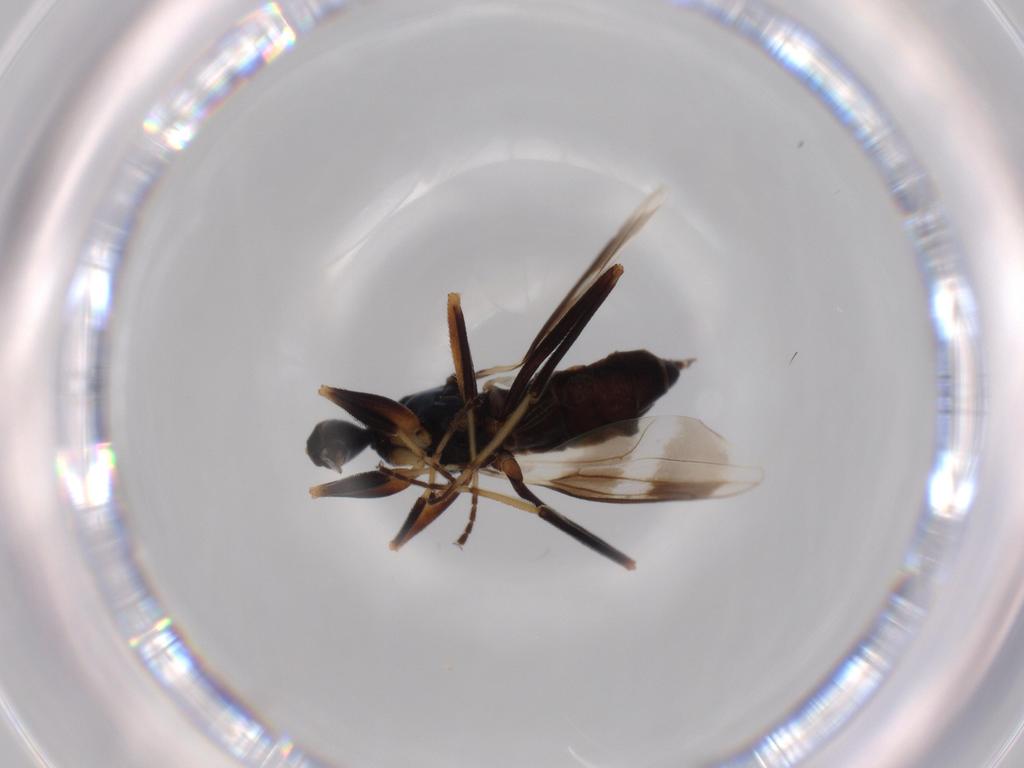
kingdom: Animalia
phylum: Arthropoda
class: Insecta
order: Diptera
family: Hybotidae
